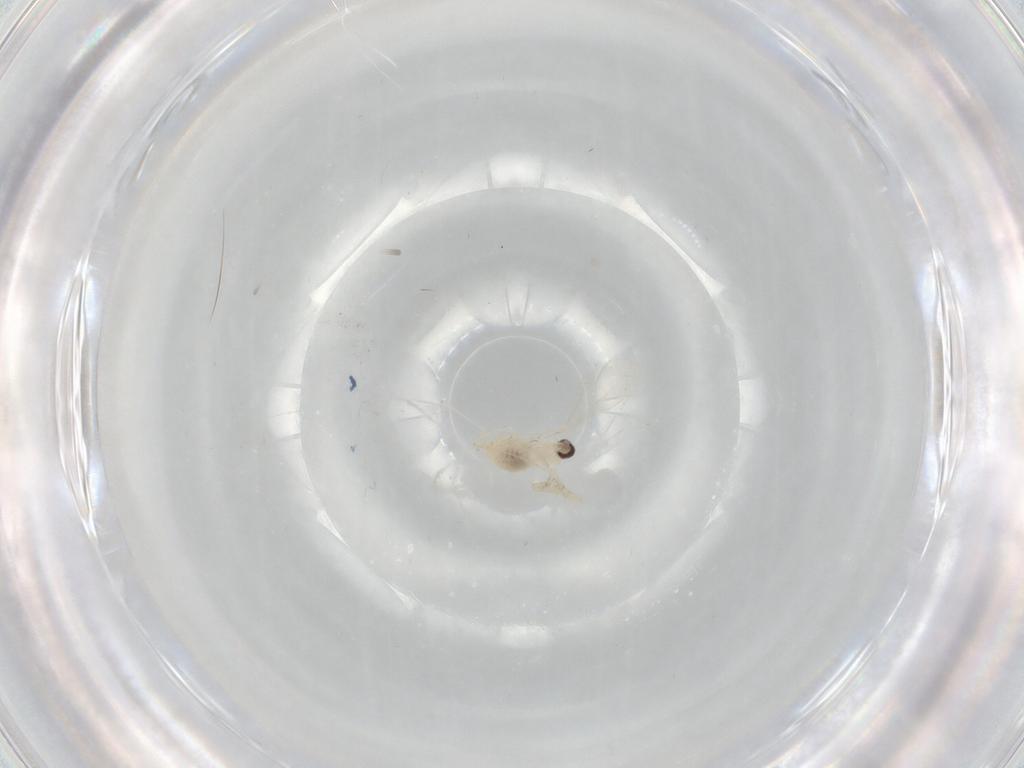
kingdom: Animalia
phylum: Arthropoda
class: Insecta
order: Diptera
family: Psychodidae
